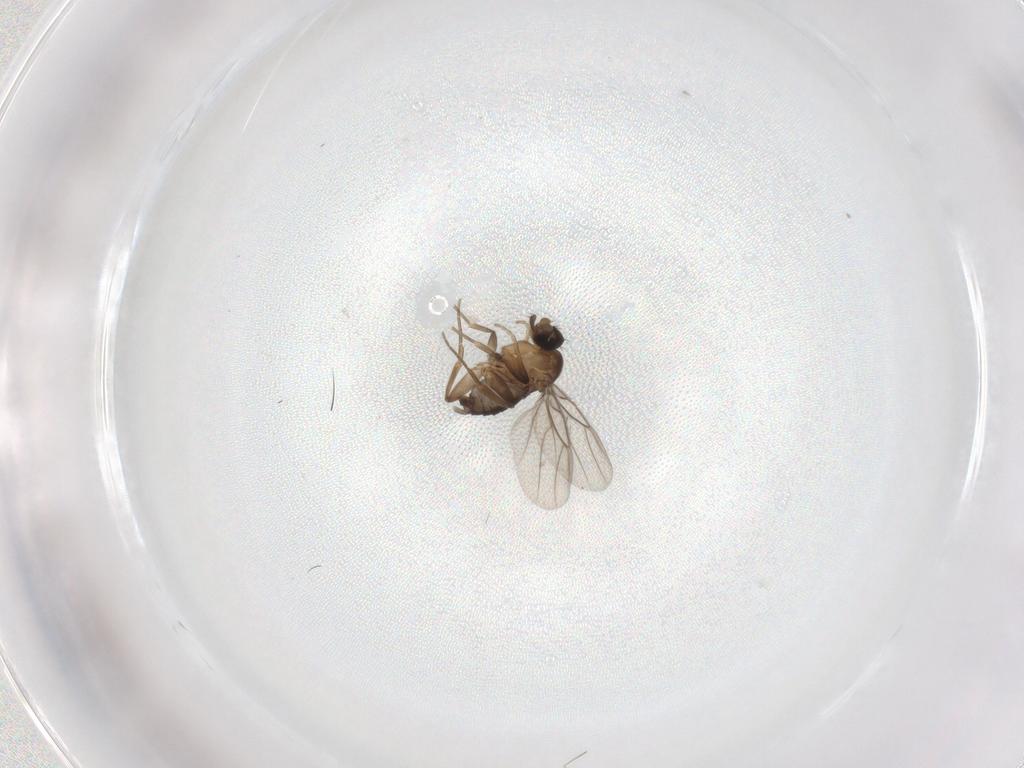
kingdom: Animalia
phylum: Arthropoda
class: Insecta
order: Diptera
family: Phoridae
